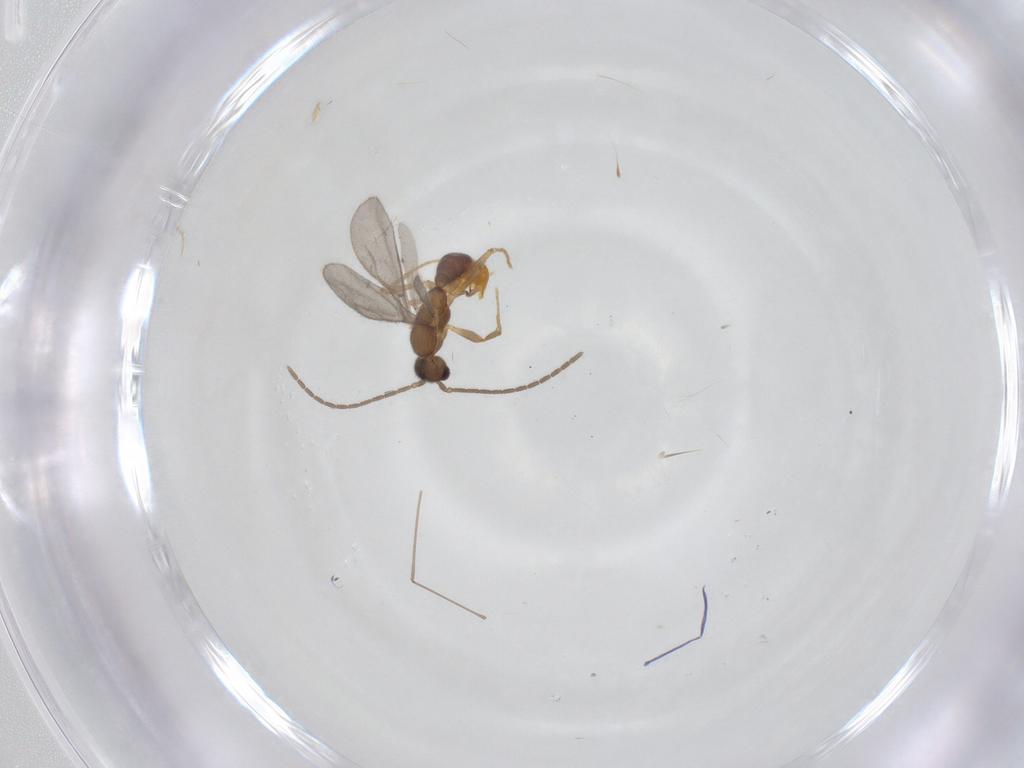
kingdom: Animalia
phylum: Arthropoda
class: Insecta
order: Hymenoptera
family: Formicidae
